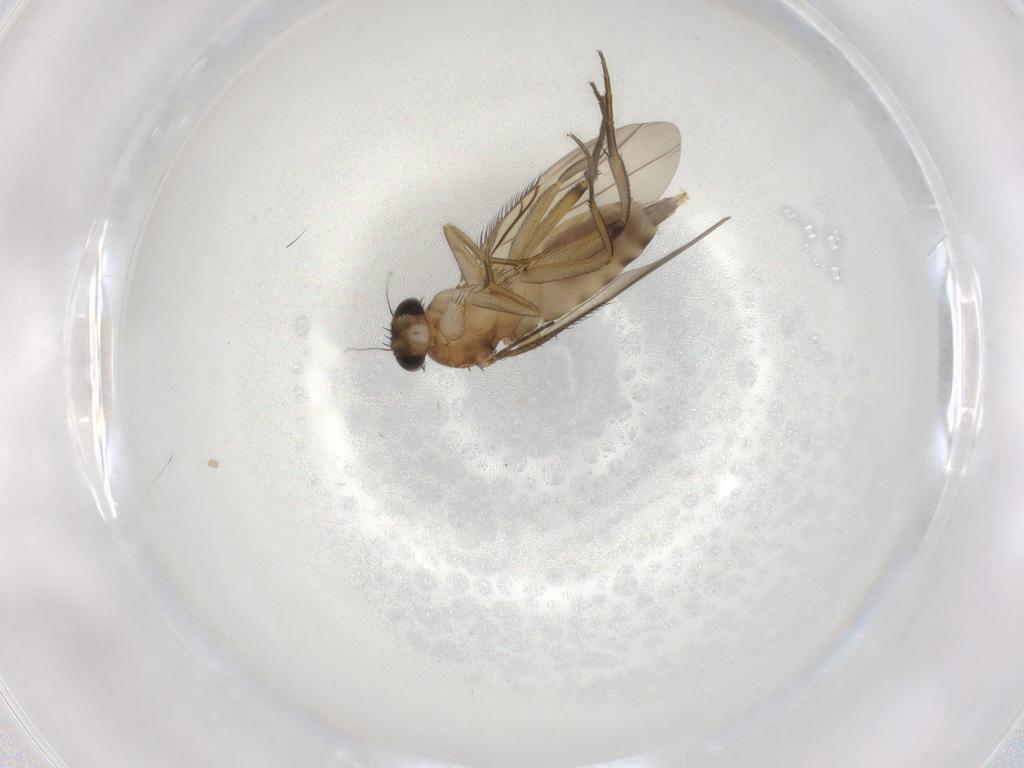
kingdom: Animalia
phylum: Arthropoda
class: Insecta
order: Diptera
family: Phoridae
